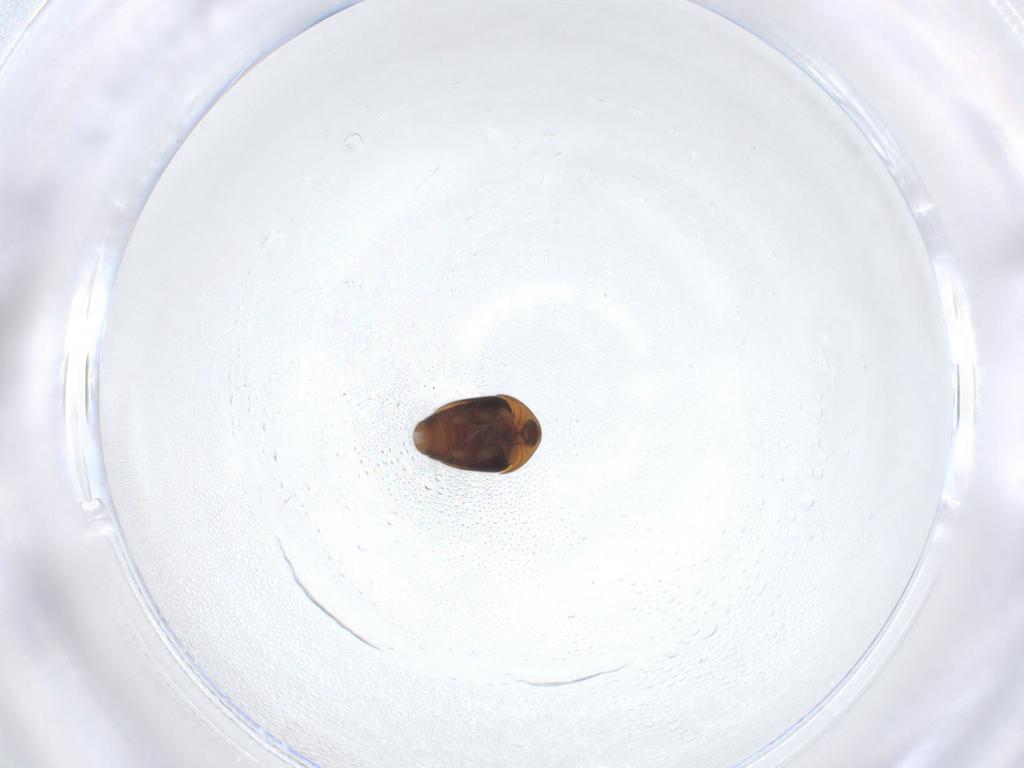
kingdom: Animalia
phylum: Arthropoda
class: Insecta
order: Coleoptera
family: Corylophidae
